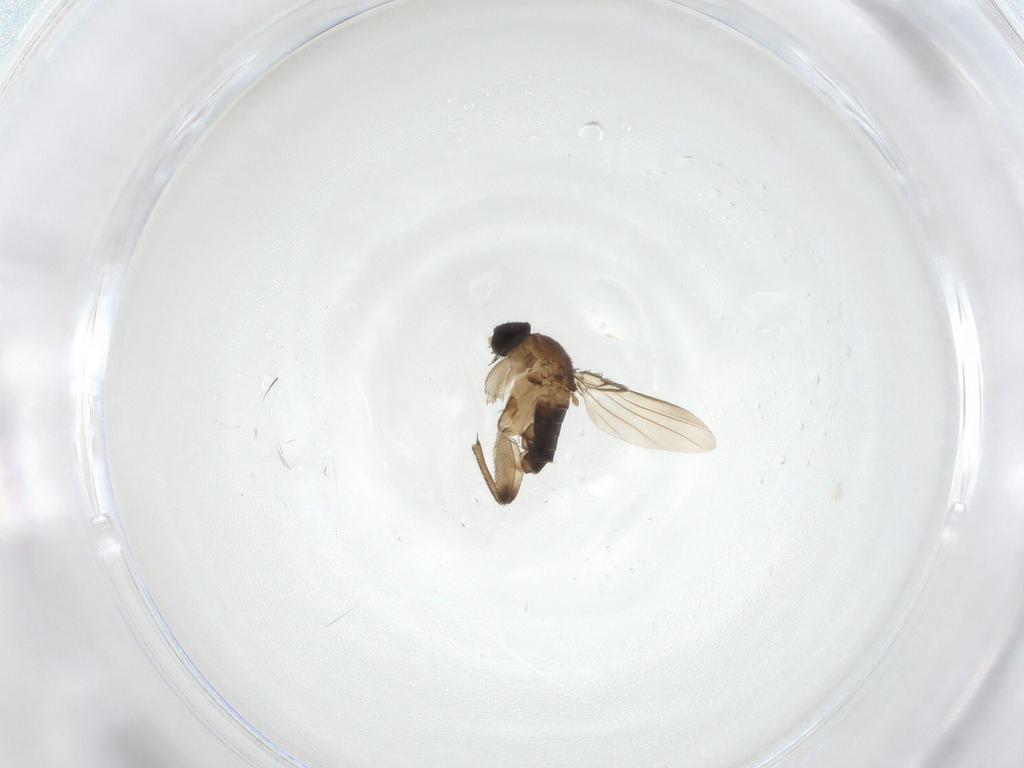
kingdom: Animalia
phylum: Arthropoda
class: Insecta
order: Diptera
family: Phoridae
